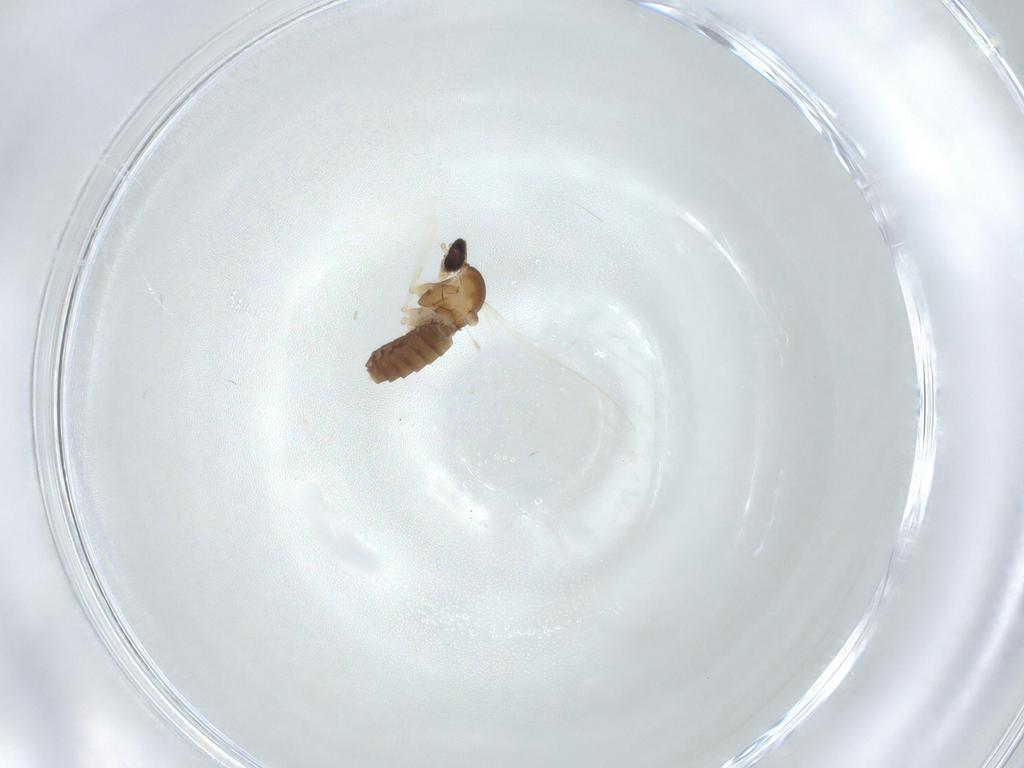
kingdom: Animalia
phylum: Arthropoda
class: Insecta
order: Diptera
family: Cecidomyiidae
